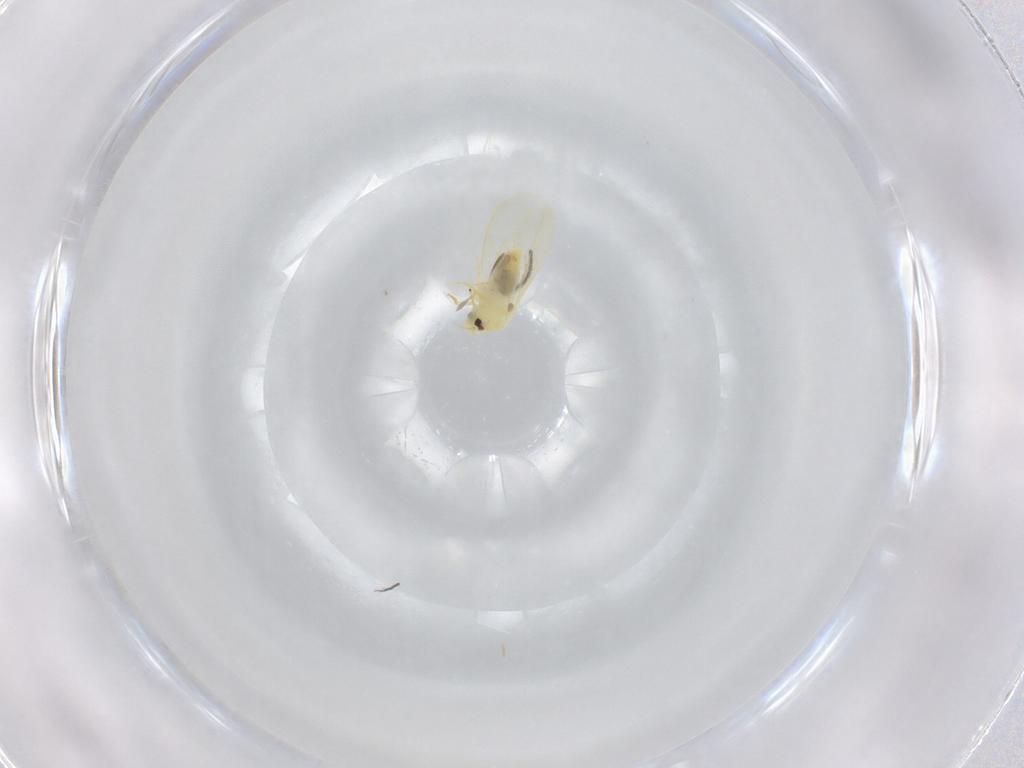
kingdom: Animalia
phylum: Arthropoda
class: Insecta
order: Hemiptera
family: Aleyrodidae
